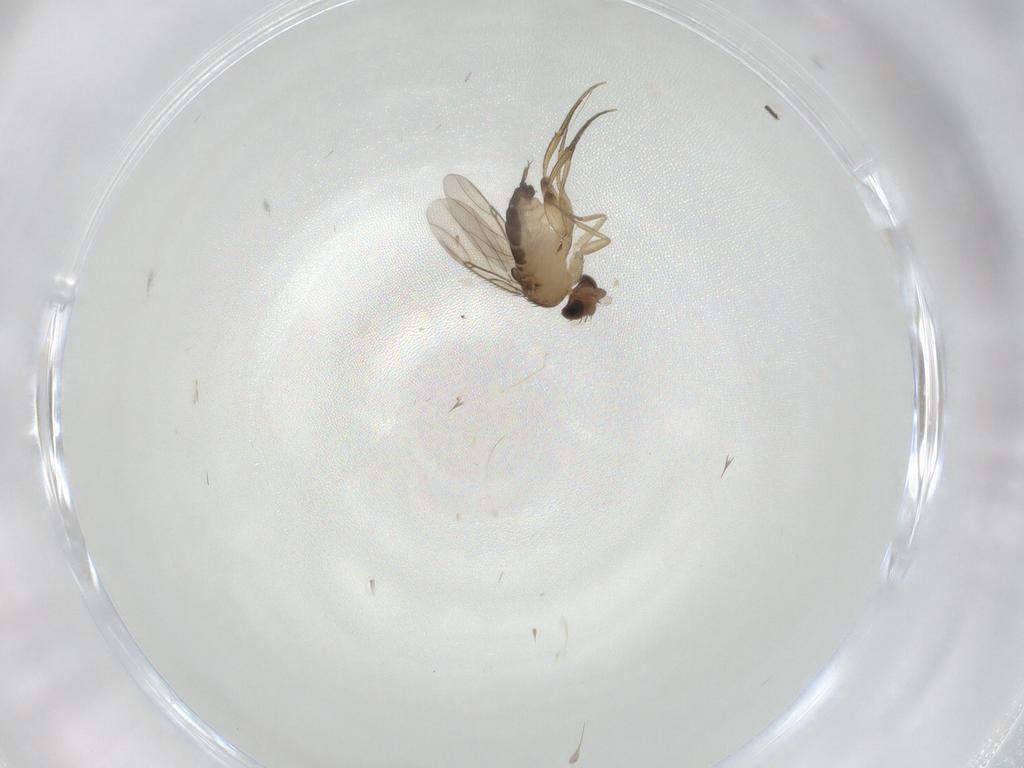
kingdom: Animalia
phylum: Arthropoda
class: Insecta
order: Diptera
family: Phoridae
